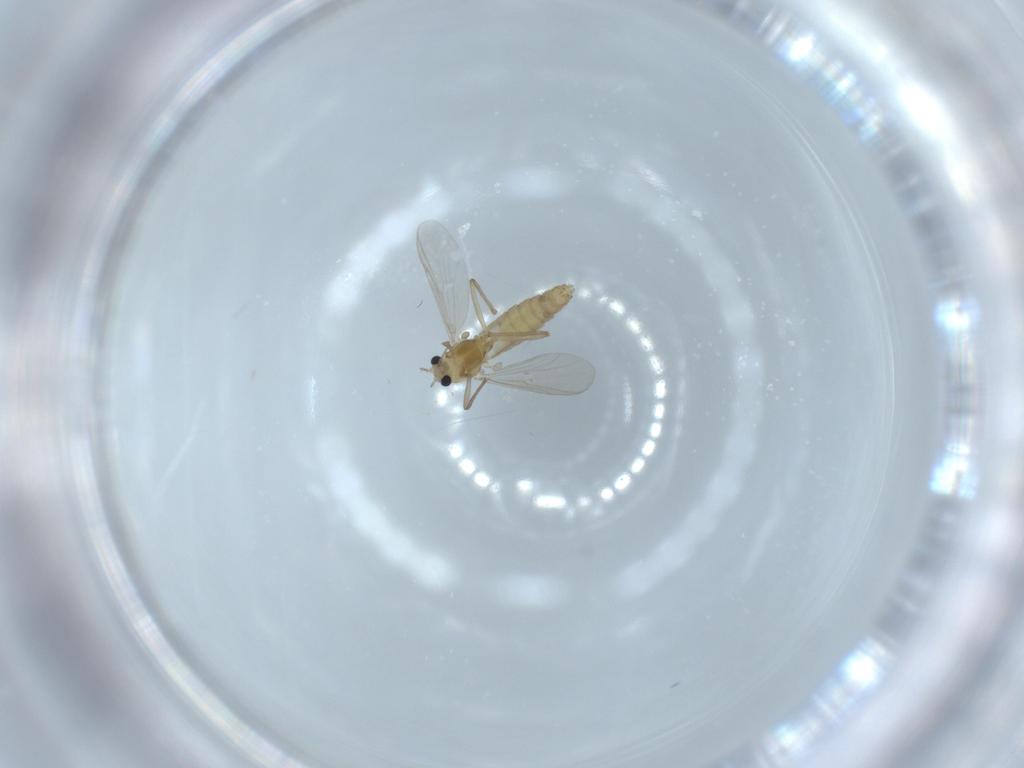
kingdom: Animalia
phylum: Arthropoda
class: Insecta
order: Diptera
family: Chironomidae
